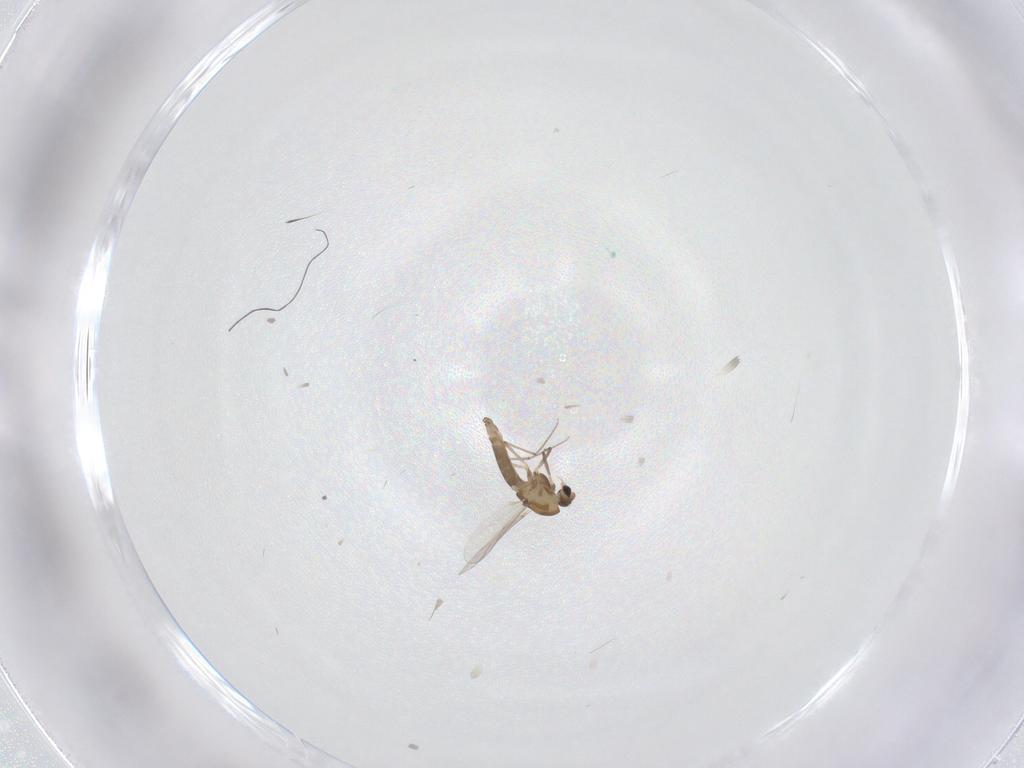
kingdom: Animalia
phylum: Arthropoda
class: Insecta
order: Diptera
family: Chironomidae
